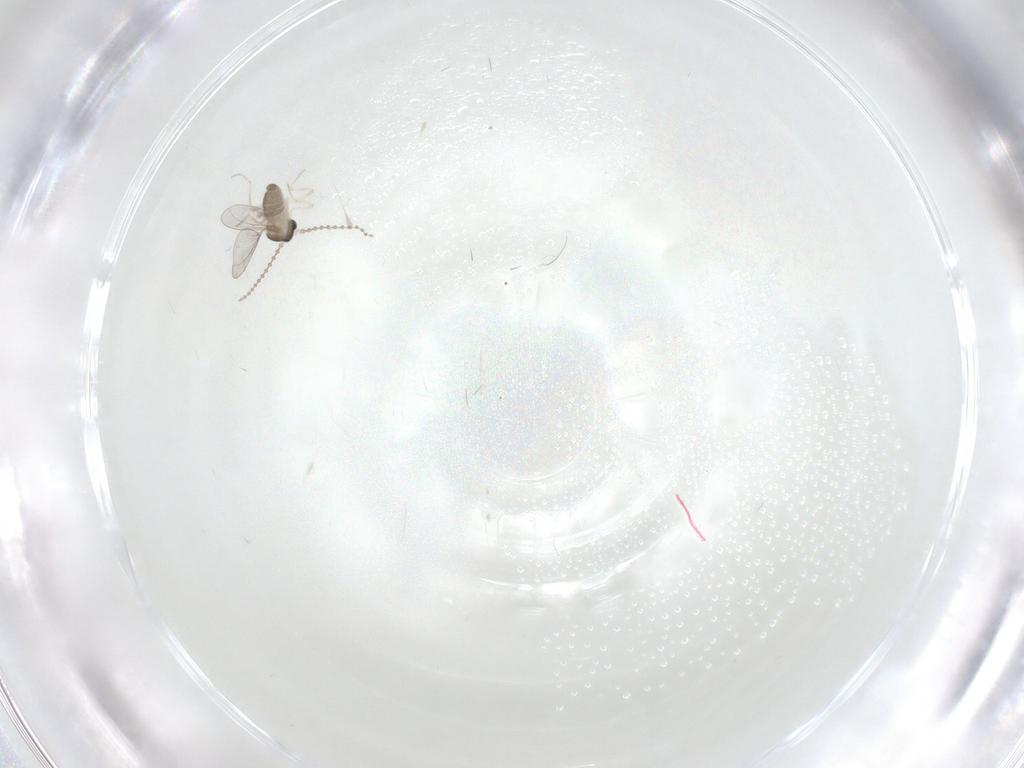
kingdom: Animalia
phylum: Arthropoda
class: Insecta
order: Diptera
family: Cecidomyiidae
